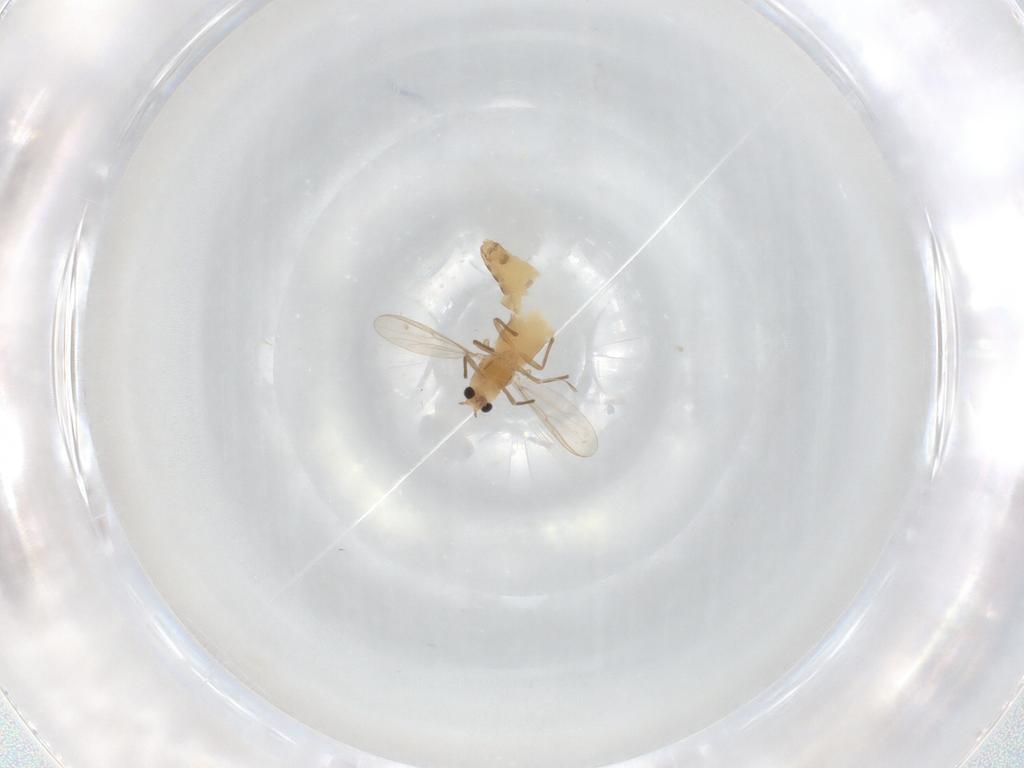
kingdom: Animalia
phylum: Arthropoda
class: Insecta
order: Diptera
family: Chironomidae
